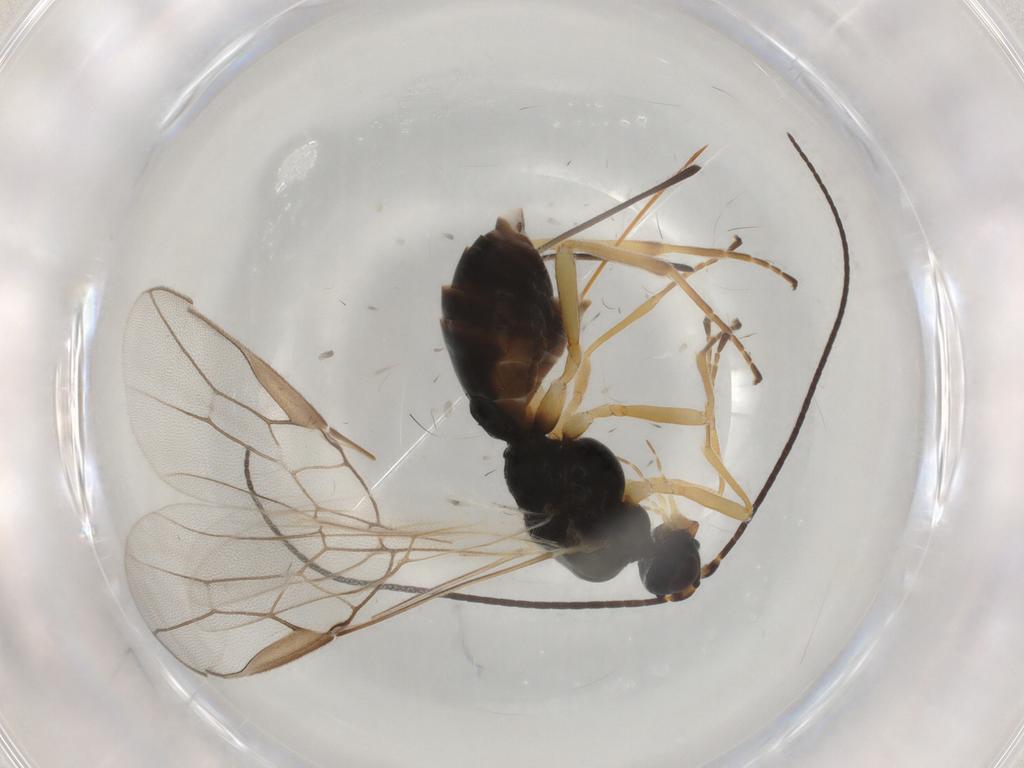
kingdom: Animalia
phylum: Arthropoda
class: Insecta
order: Hymenoptera
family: Braconidae
